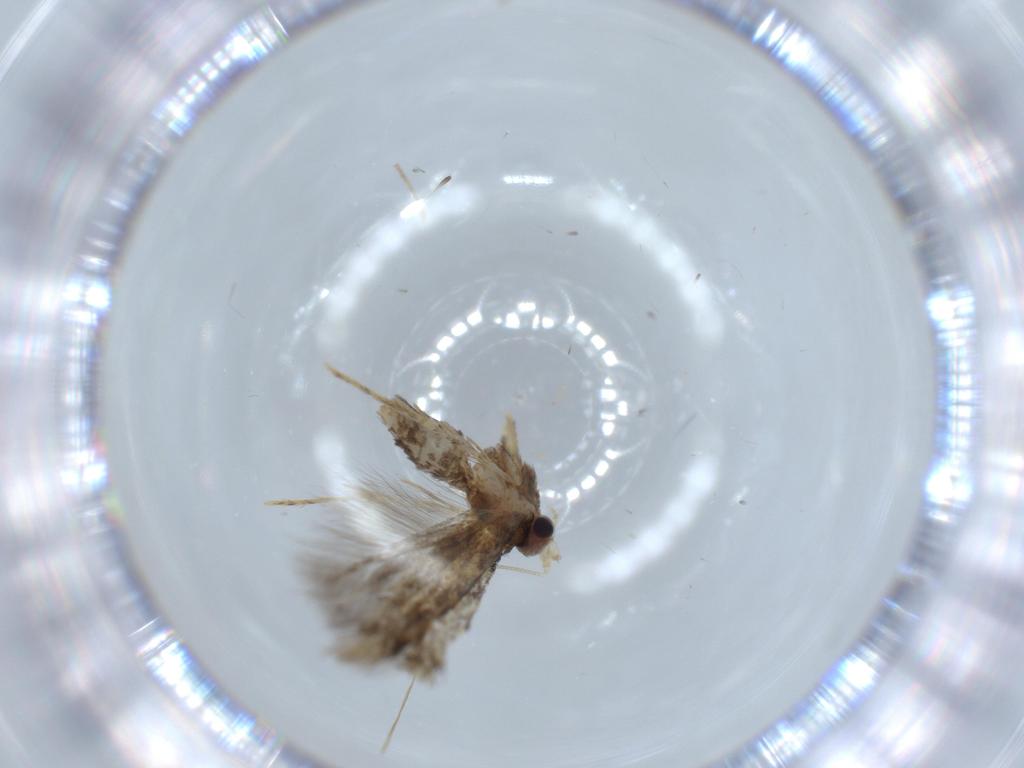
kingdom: Animalia
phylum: Arthropoda
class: Insecta
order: Lepidoptera
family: Tineidae
